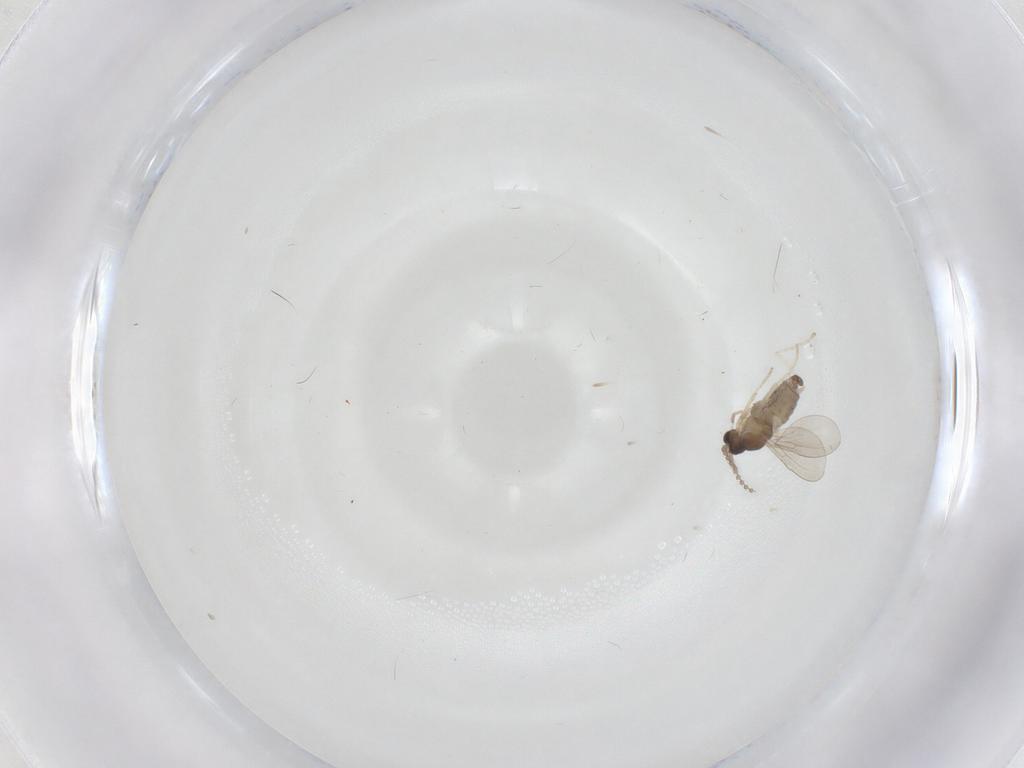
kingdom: Animalia
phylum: Arthropoda
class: Insecta
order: Diptera
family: Cecidomyiidae
